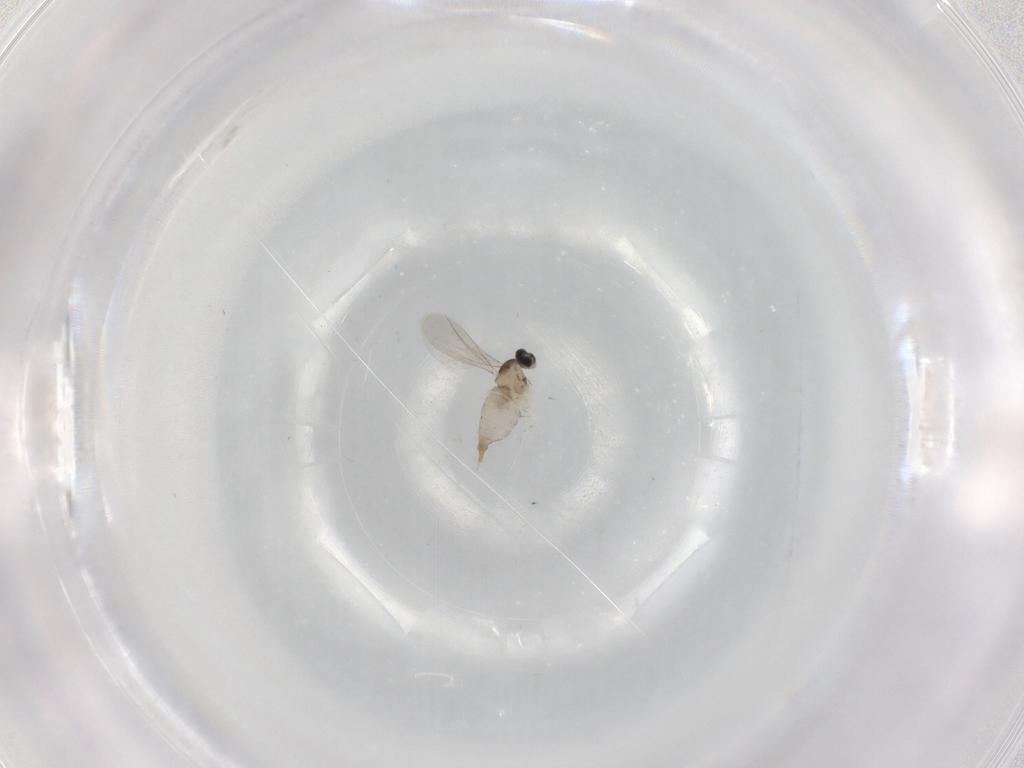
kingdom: Animalia
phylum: Arthropoda
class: Insecta
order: Diptera
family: Cecidomyiidae
